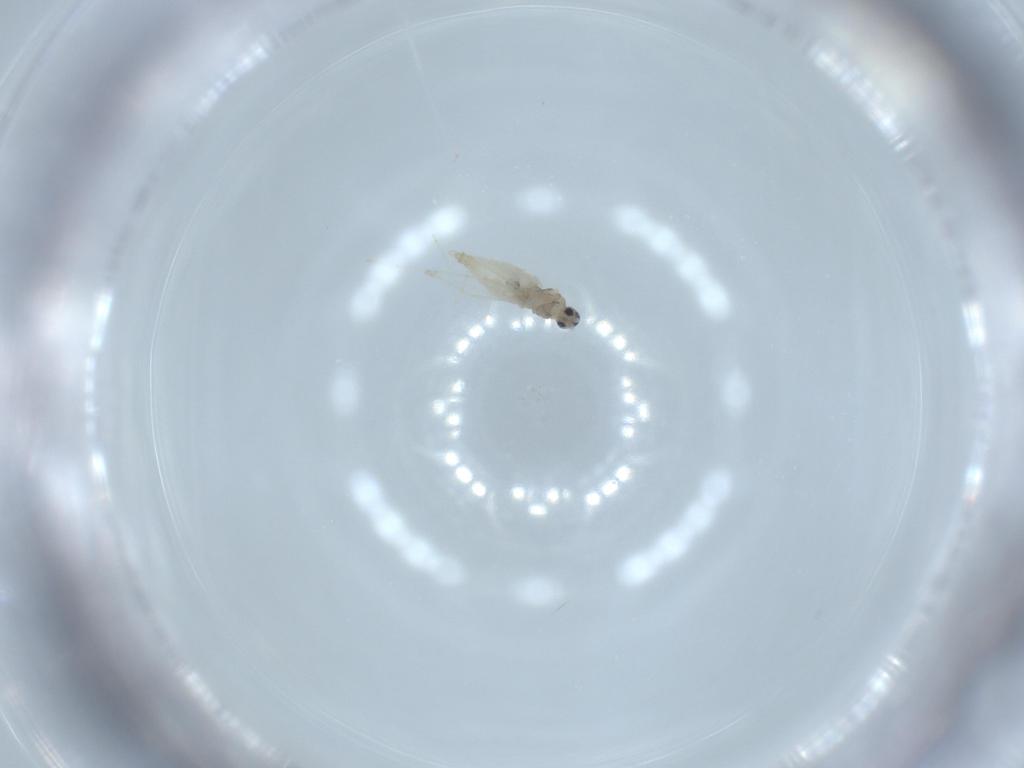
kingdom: Animalia
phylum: Arthropoda
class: Insecta
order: Diptera
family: Cecidomyiidae
